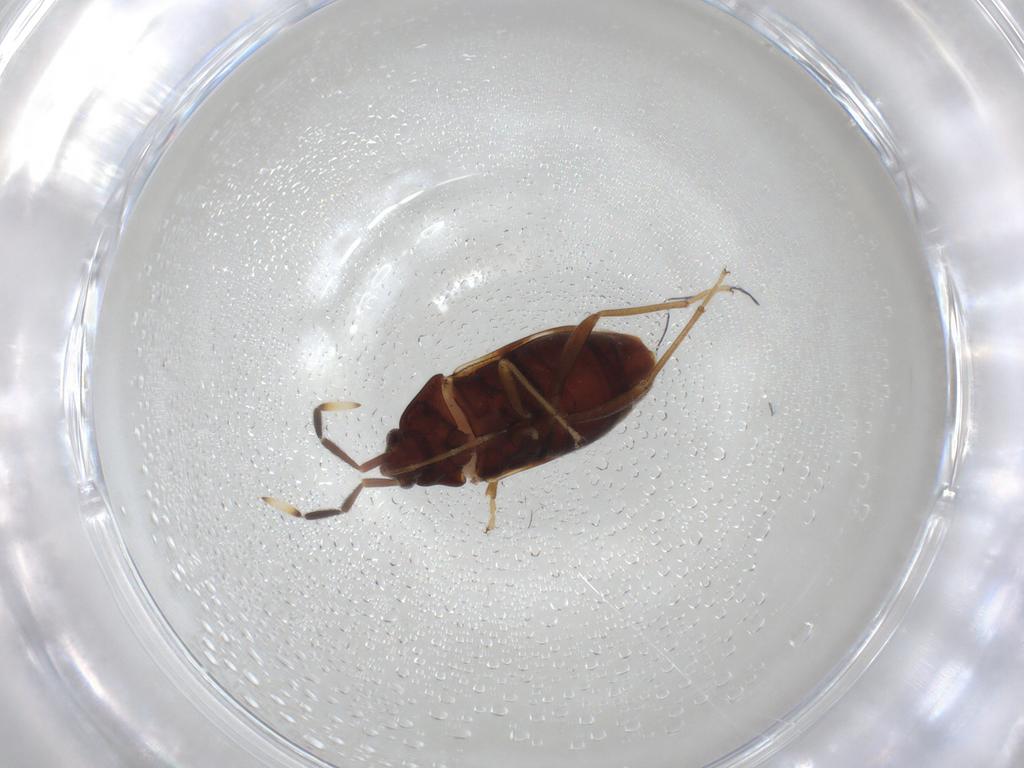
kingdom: Animalia
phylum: Arthropoda
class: Insecta
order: Hemiptera
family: Rhyparochromidae
